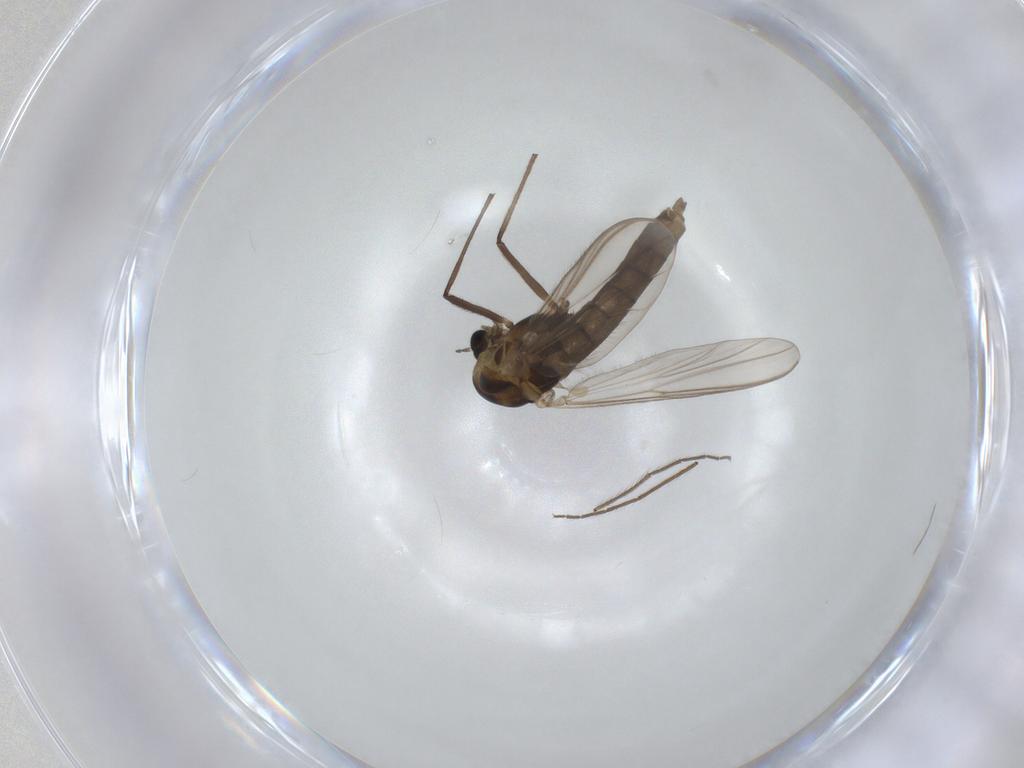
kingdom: Animalia
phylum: Arthropoda
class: Insecta
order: Diptera
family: Chironomidae
